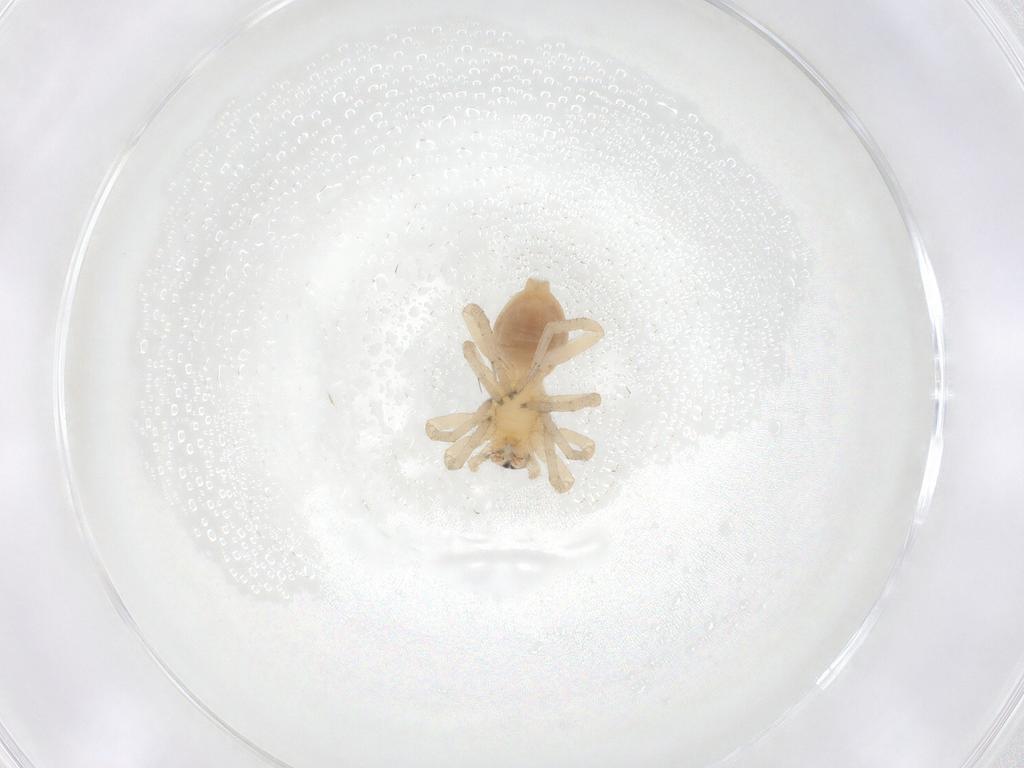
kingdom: Animalia
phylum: Arthropoda
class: Arachnida
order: Araneae
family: Clubionidae
